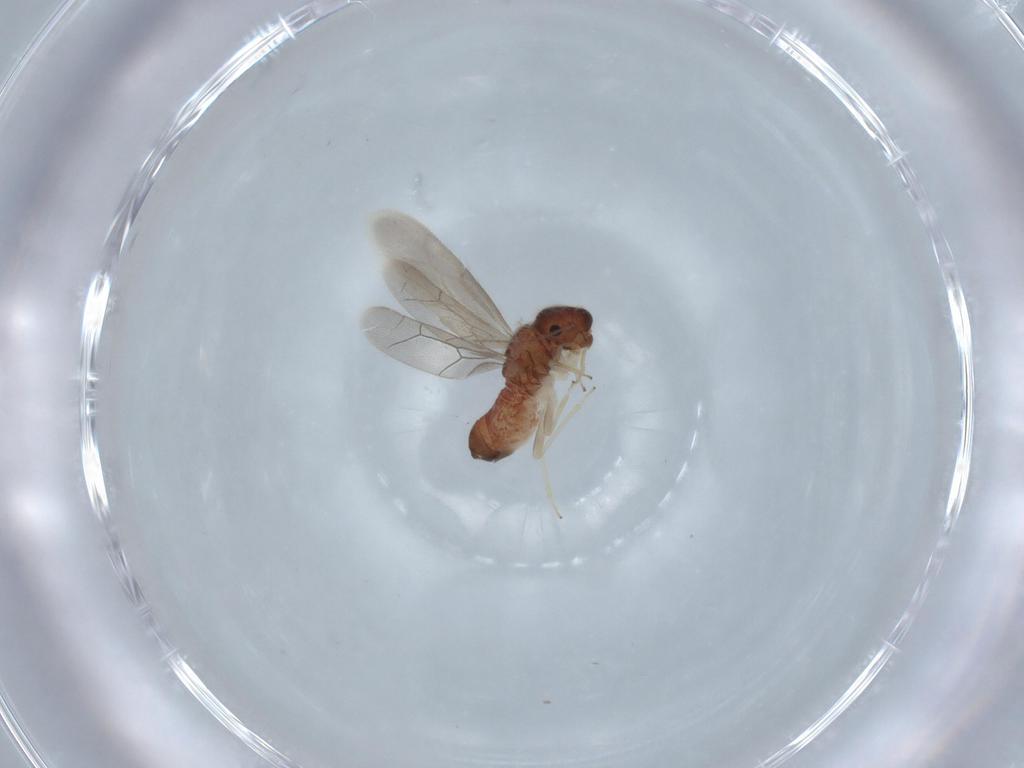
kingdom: Animalia
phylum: Arthropoda
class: Insecta
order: Psocodea
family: Archipsocidae
